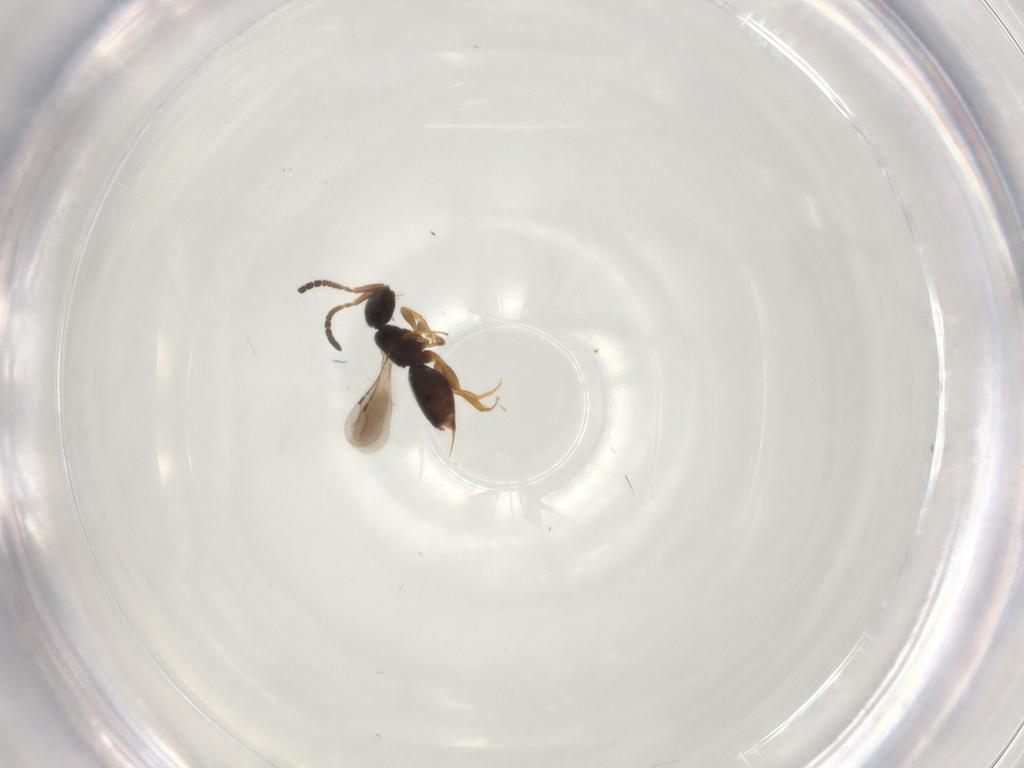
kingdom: Animalia
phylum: Arthropoda
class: Insecta
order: Hymenoptera
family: Ceraphronidae
